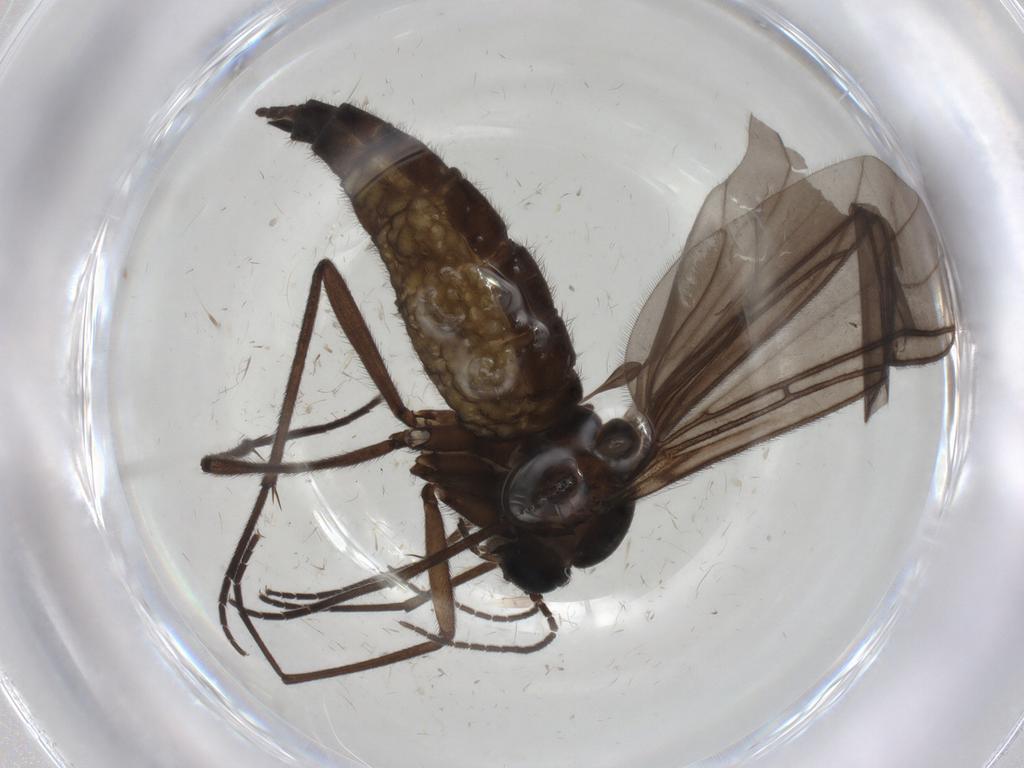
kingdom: Animalia
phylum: Arthropoda
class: Insecta
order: Diptera
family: Sciaridae
